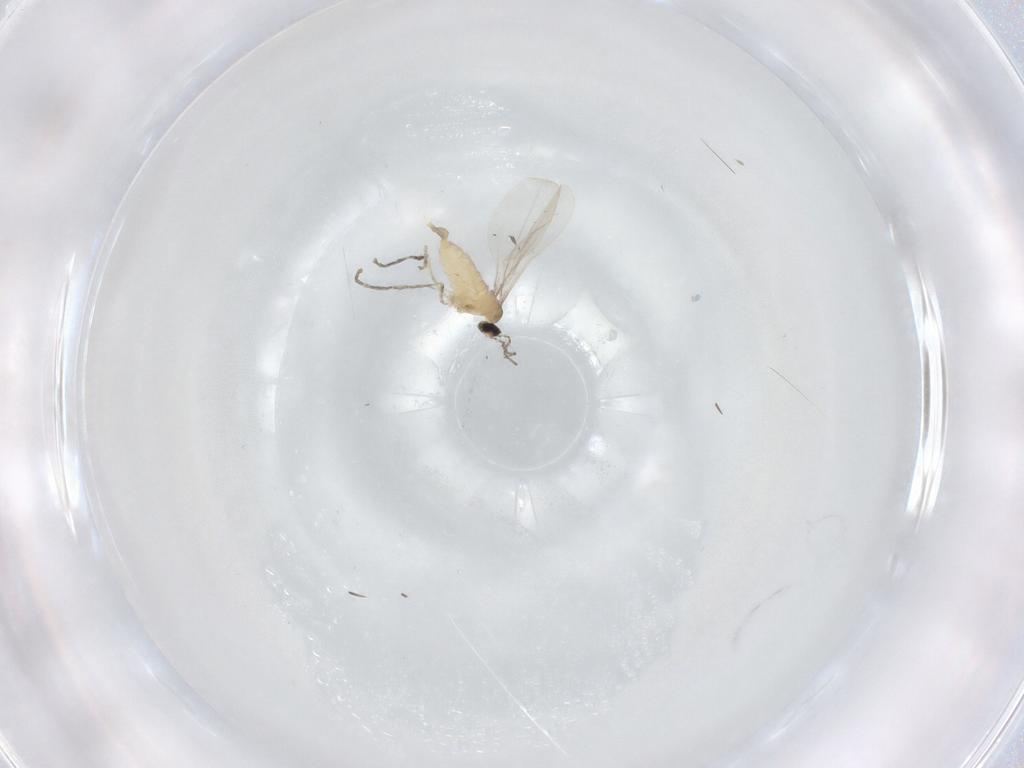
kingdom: Animalia
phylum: Arthropoda
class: Insecta
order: Diptera
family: Cecidomyiidae
